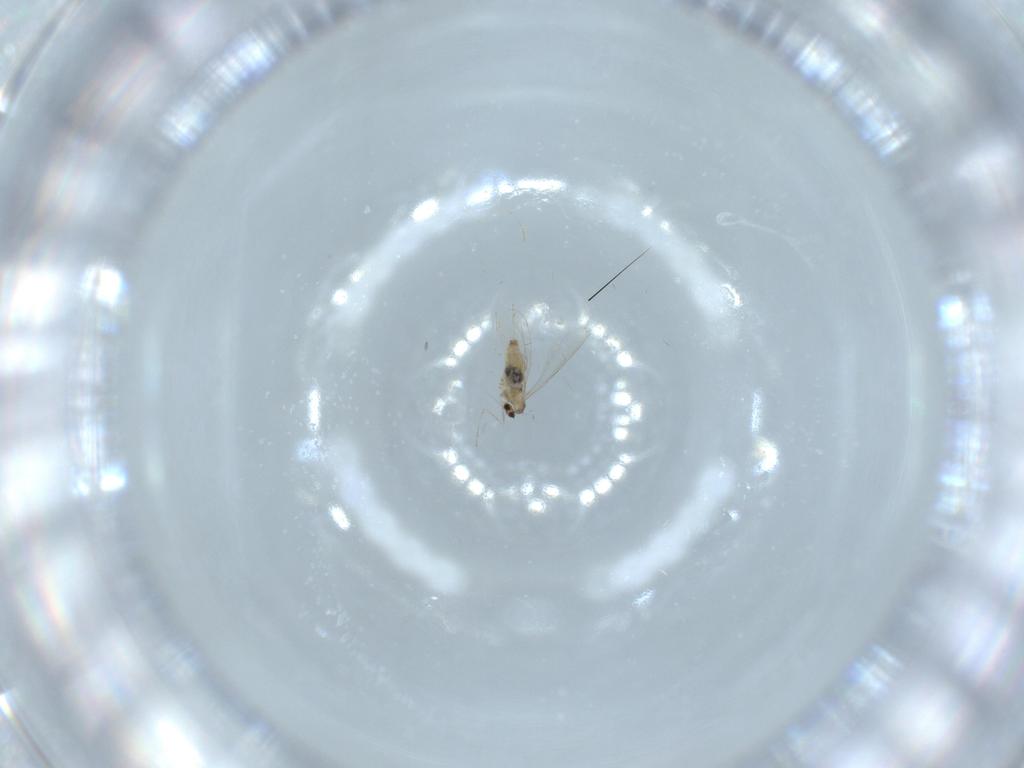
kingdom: Animalia
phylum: Arthropoda
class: Insecta
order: Diptera
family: Cecidomyiidae
